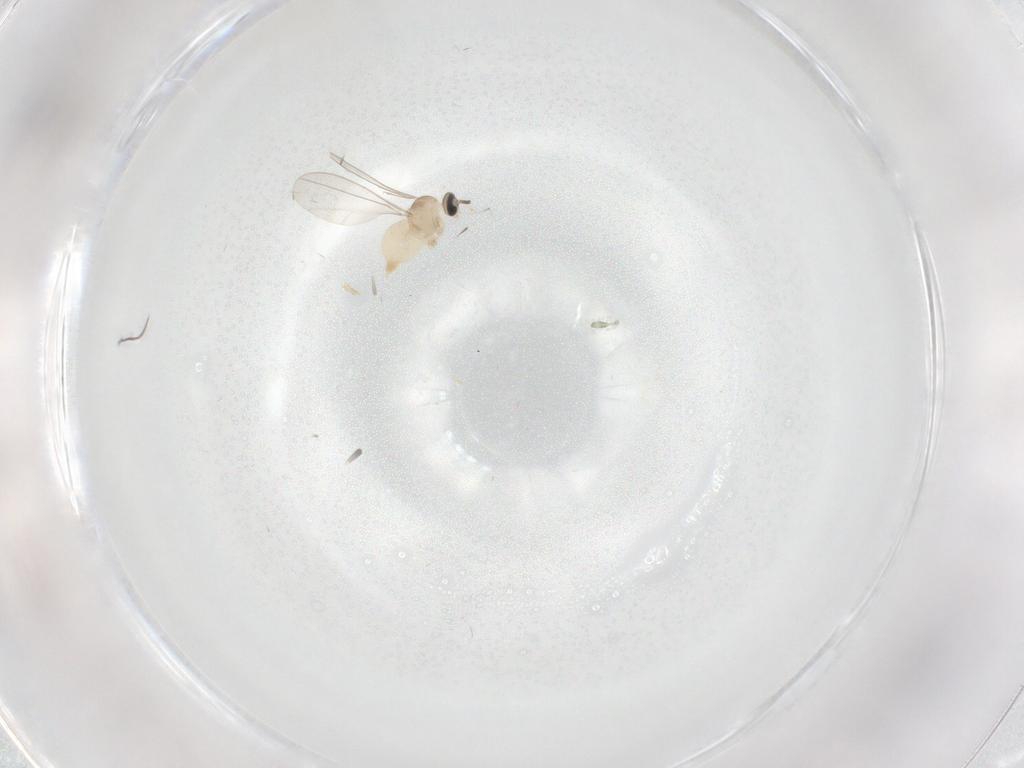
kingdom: Animalia
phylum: Arthropoda
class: Insecta
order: Diptera
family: Cecidomyiidae
